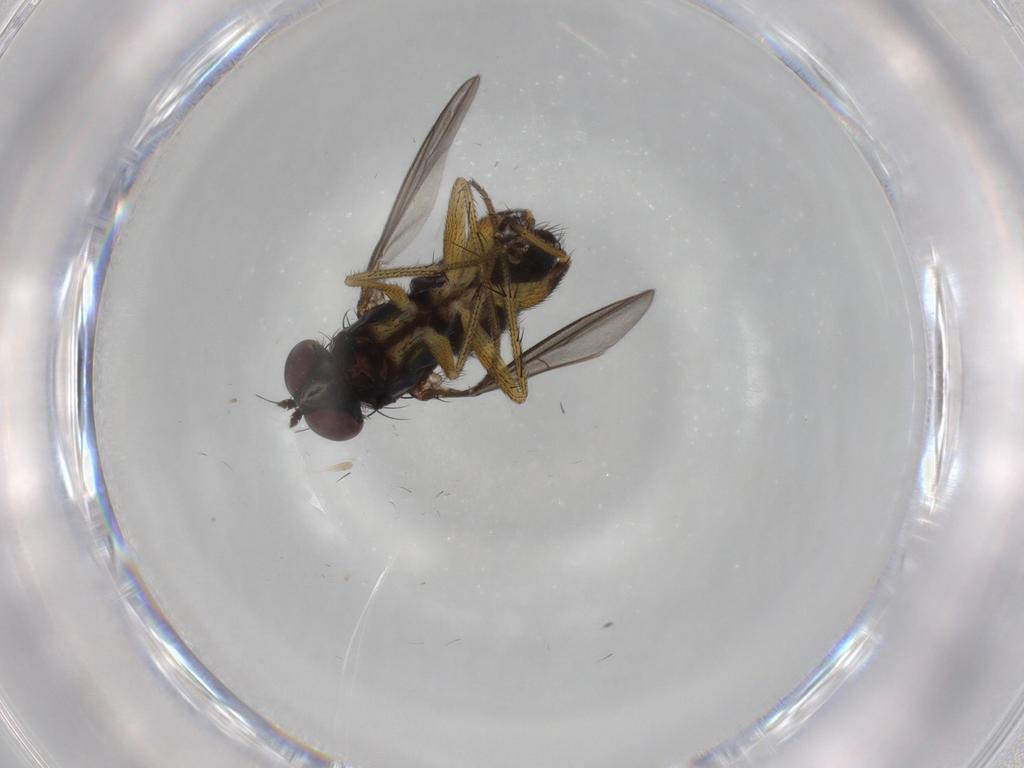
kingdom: Animalia
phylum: Arthropoda
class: Insecta
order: Diptera
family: Dolichopodidae
